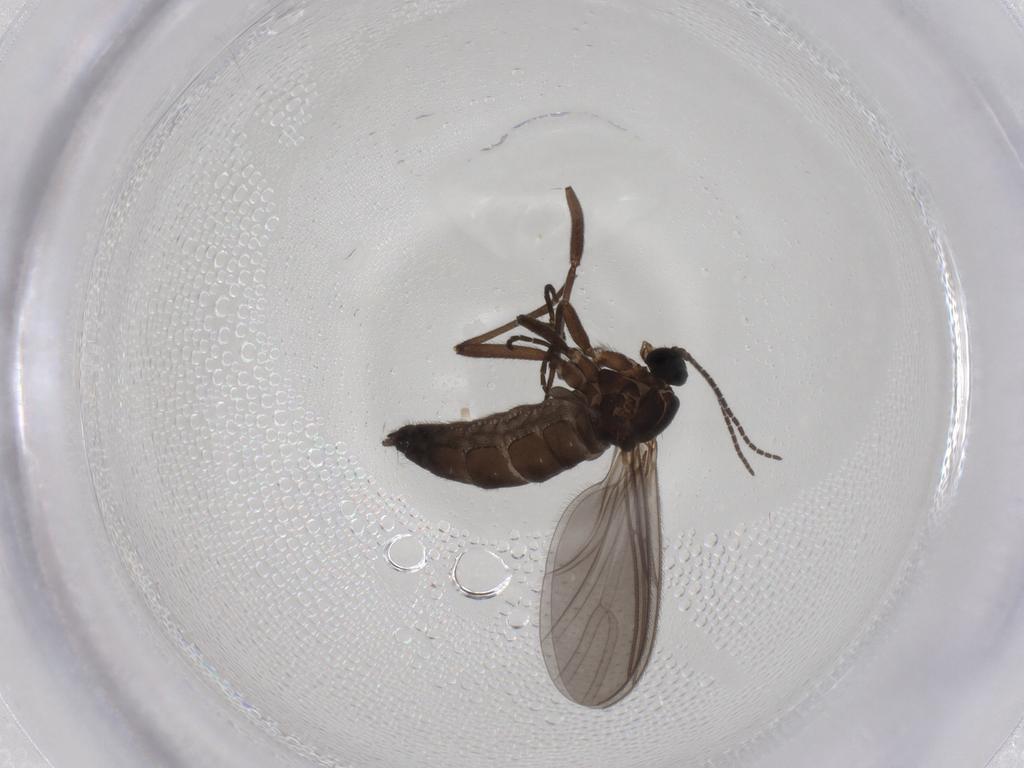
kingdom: Animalia
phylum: Arthropoda
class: Insecta
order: Diptera
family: Sciaridae
